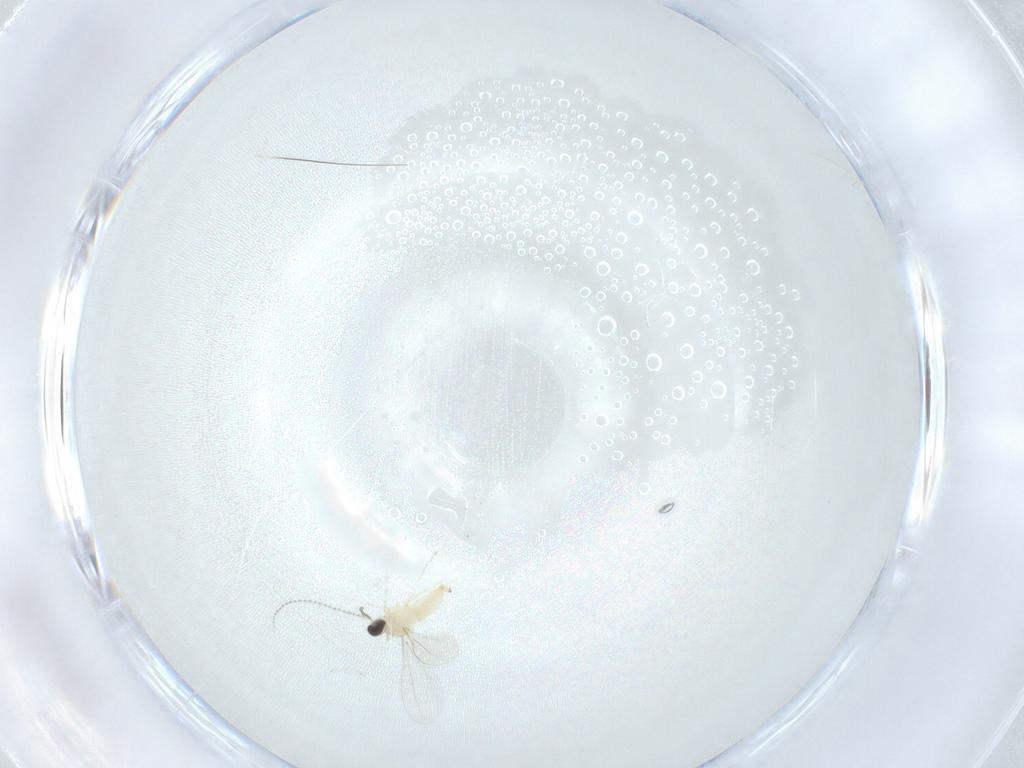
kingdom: Animalia
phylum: Arthropoda
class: Insecta
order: Diptera
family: Cecidomyiidae
